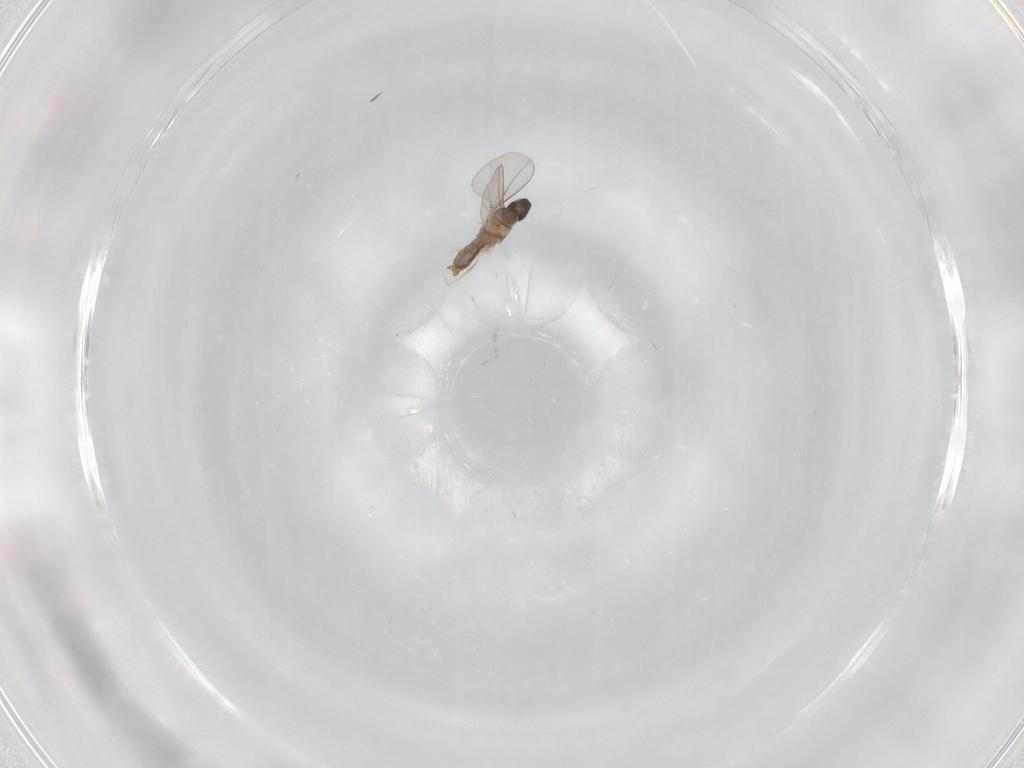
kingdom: Animalia
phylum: Arthropoda
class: Insecta
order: Diptera
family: Cecidomyiidae
